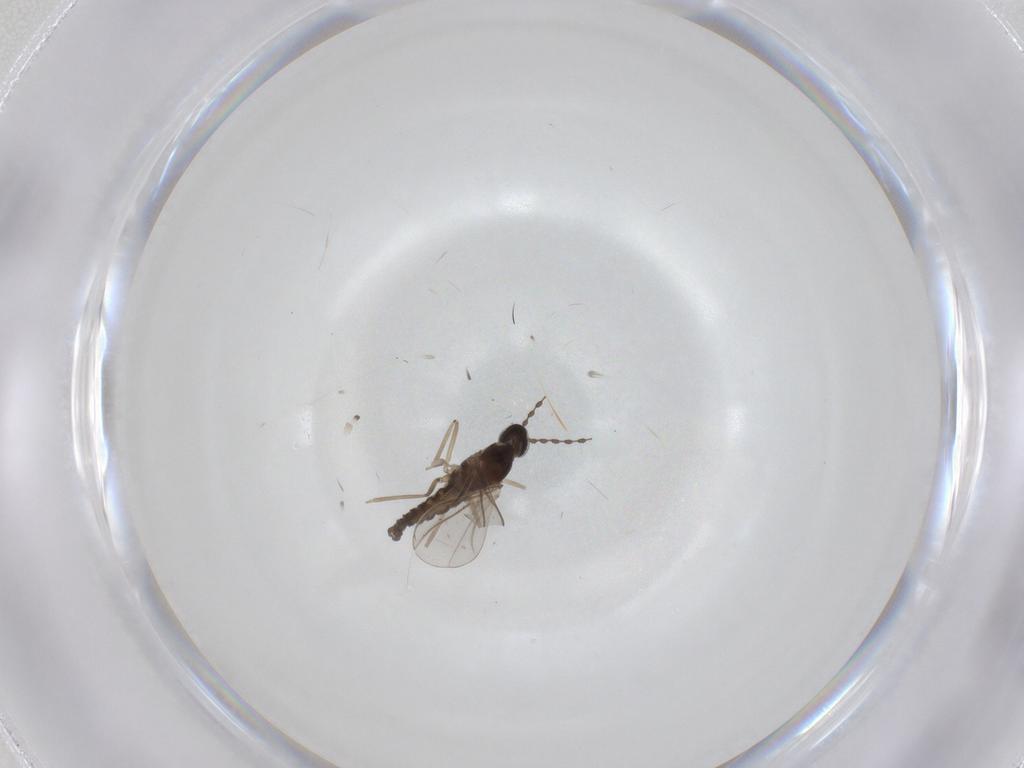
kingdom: Animalia
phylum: Arthropoda
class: Insecta
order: Diptera
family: Cecidomyiidae
